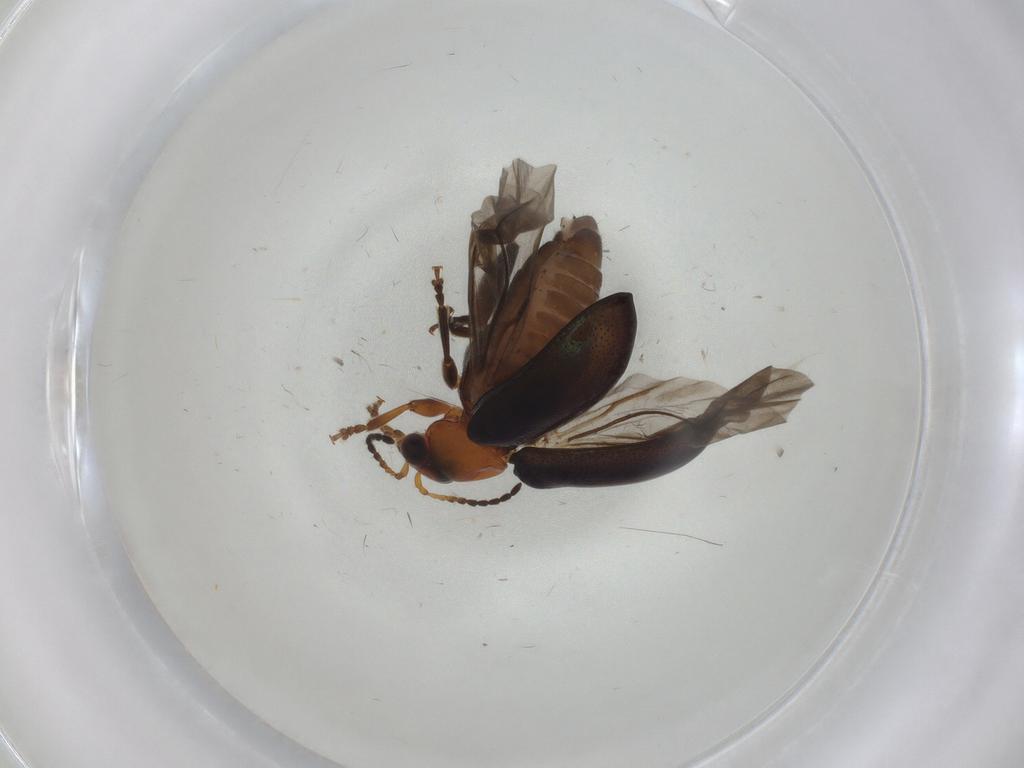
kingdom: Animalia
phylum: Arthropoda
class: Insecta
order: Coleoptera
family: Chrysomelidae
